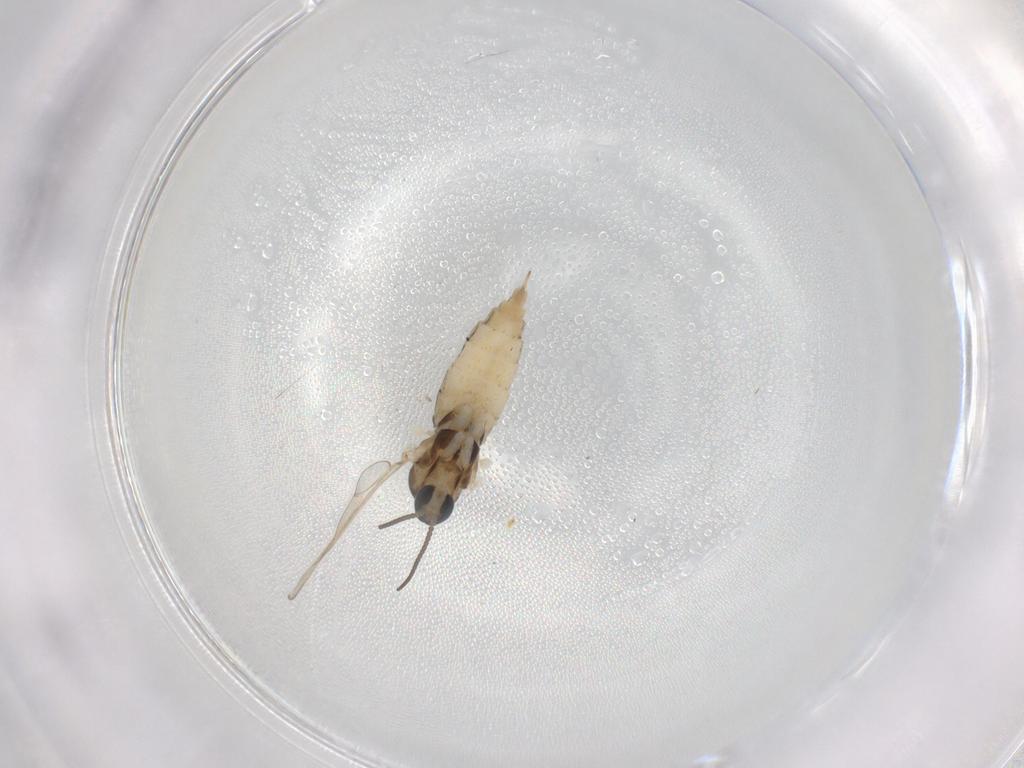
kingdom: Animalia
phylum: Arthropoda
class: Insecta
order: Diptera
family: Cecidomyiidae
